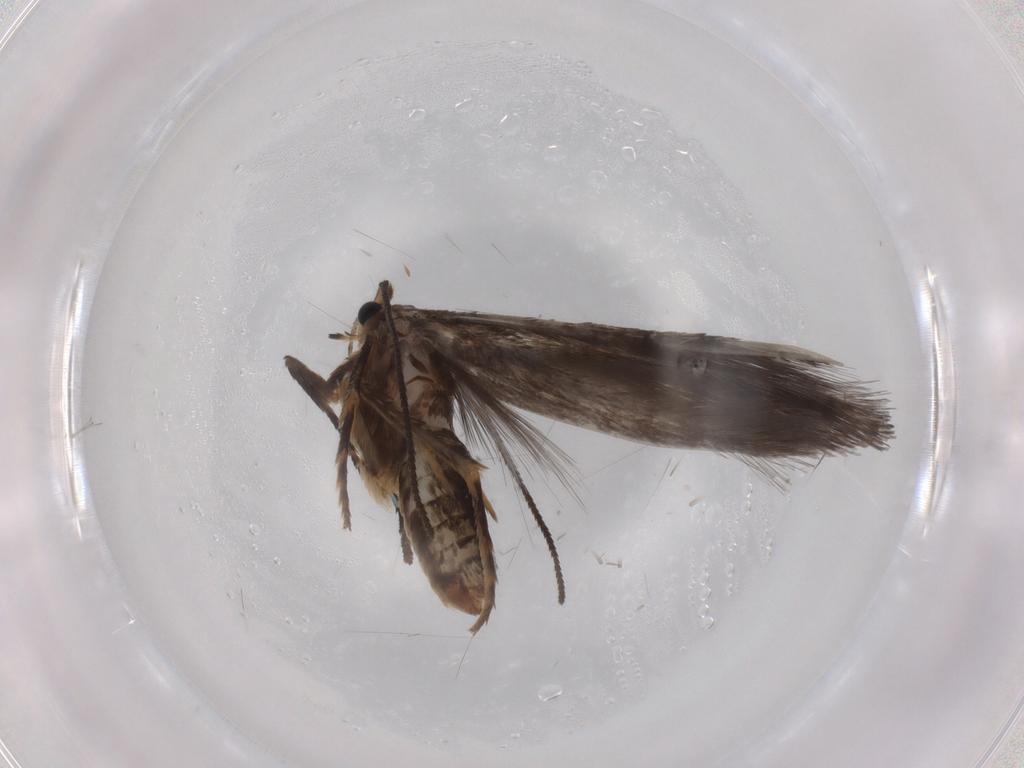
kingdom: Animalia
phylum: Arthropoda
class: Insecta
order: Lepidoptera
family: Nepticulidae
